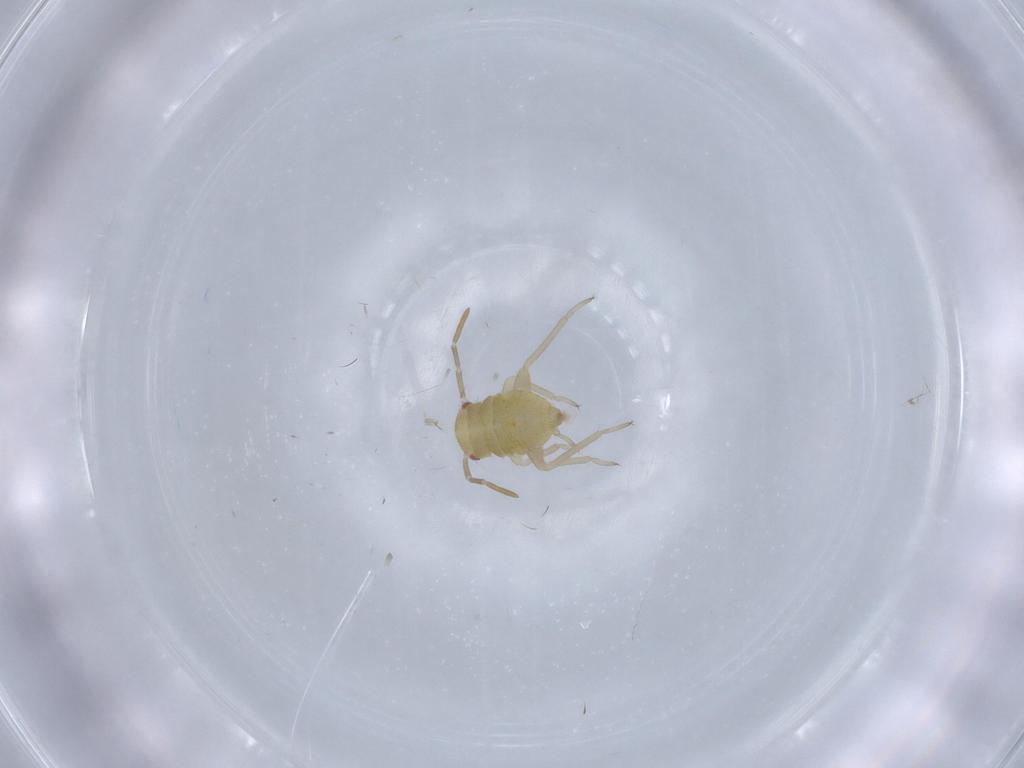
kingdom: Animalia
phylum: Arthropoda
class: Insecta
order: Hemiptera
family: Miridae
